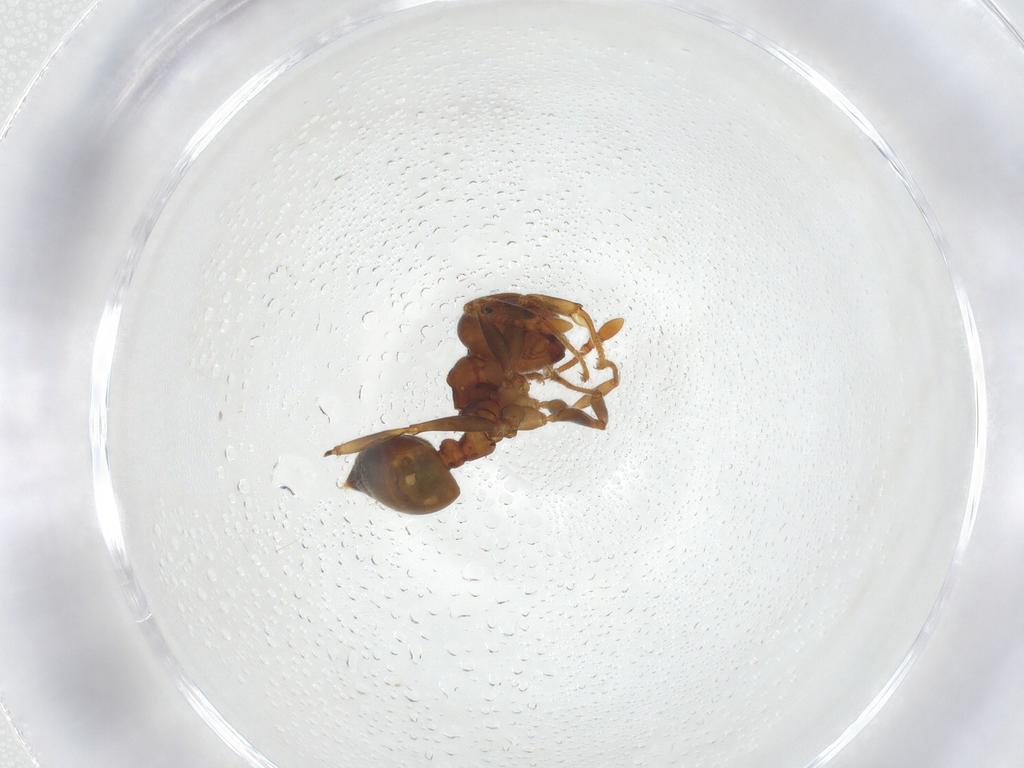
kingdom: Animalia
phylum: Arthropoda
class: Insecta
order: Hymenoptera
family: Formicidae
